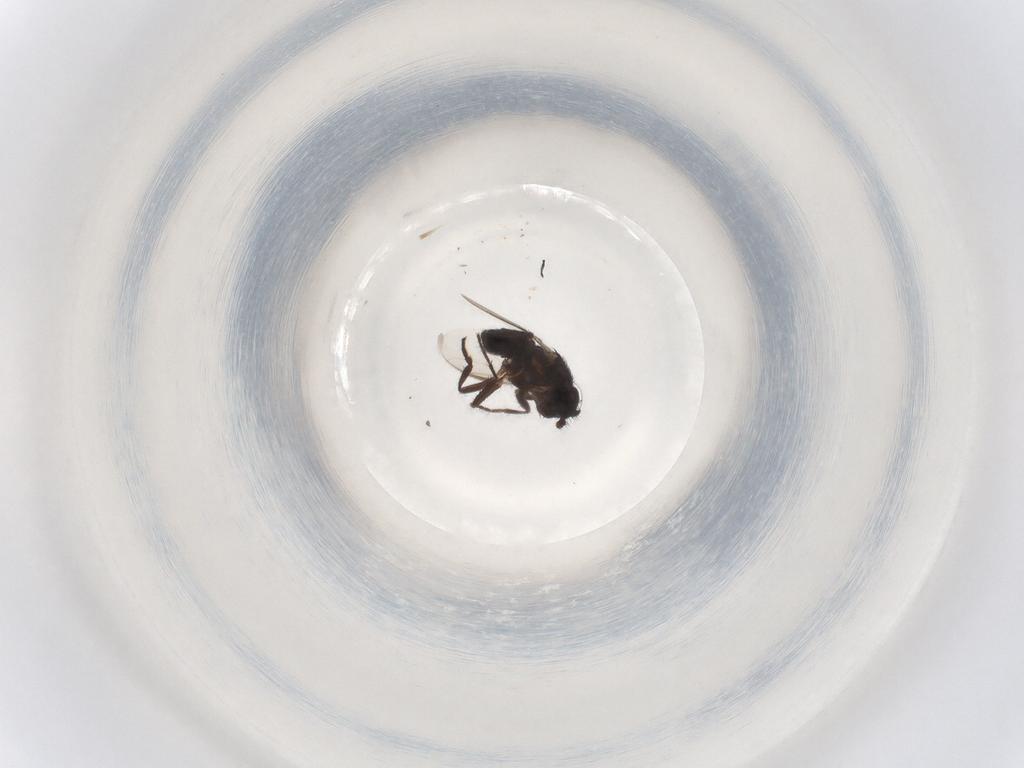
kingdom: Animalia
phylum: Arthropoda
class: Insecta
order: Diptera
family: Sphaeroceridae
